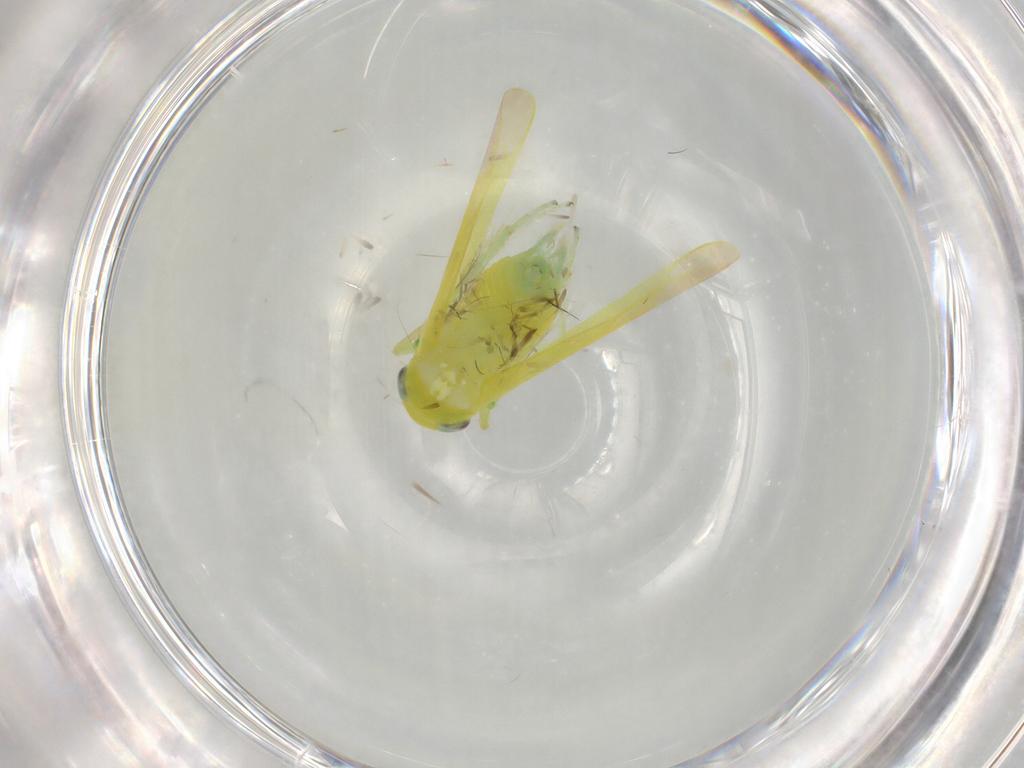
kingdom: Animalia
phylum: Arthropoda
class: Insecta
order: Hemiptera
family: Cicadellidae
